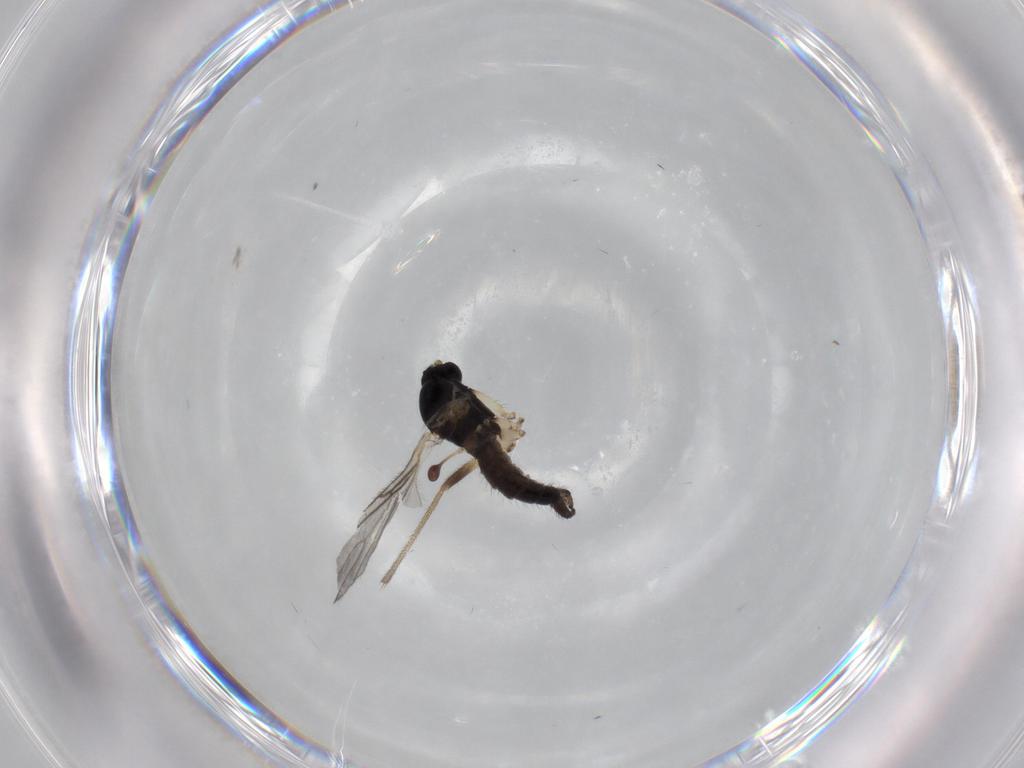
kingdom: Animalia
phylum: Arthropoda
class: Insecta
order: Diptera
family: Sciaridae
